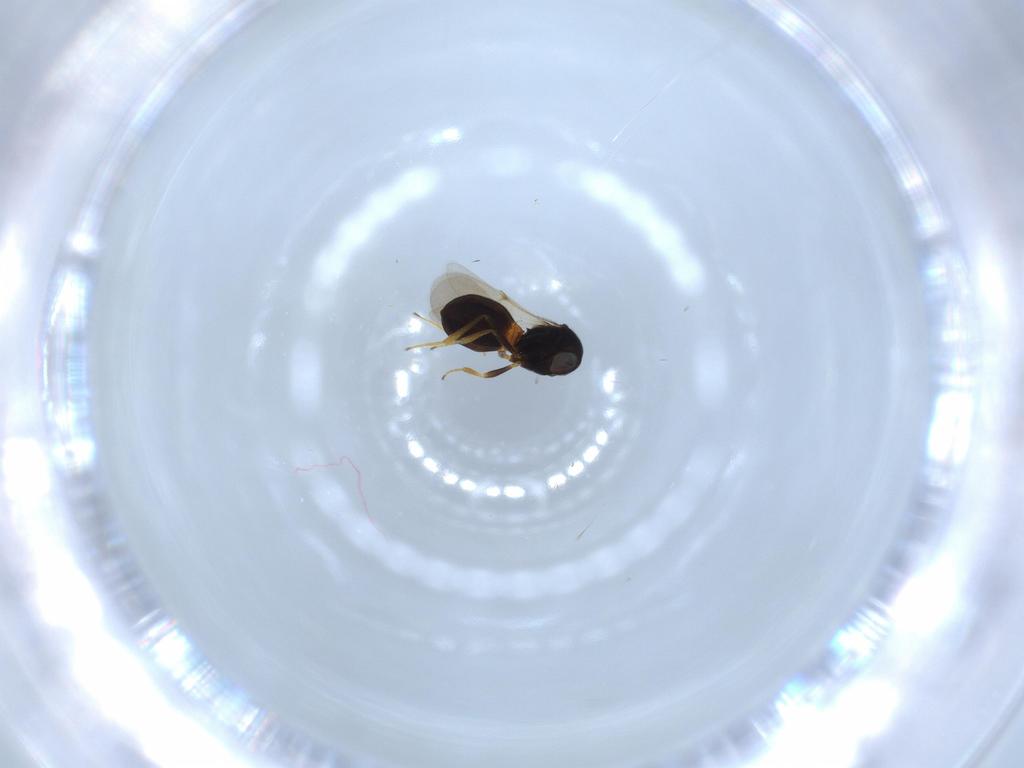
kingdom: Animalia
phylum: Arthropoda
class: Insecta
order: Hymenoptera
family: Scelionidae
